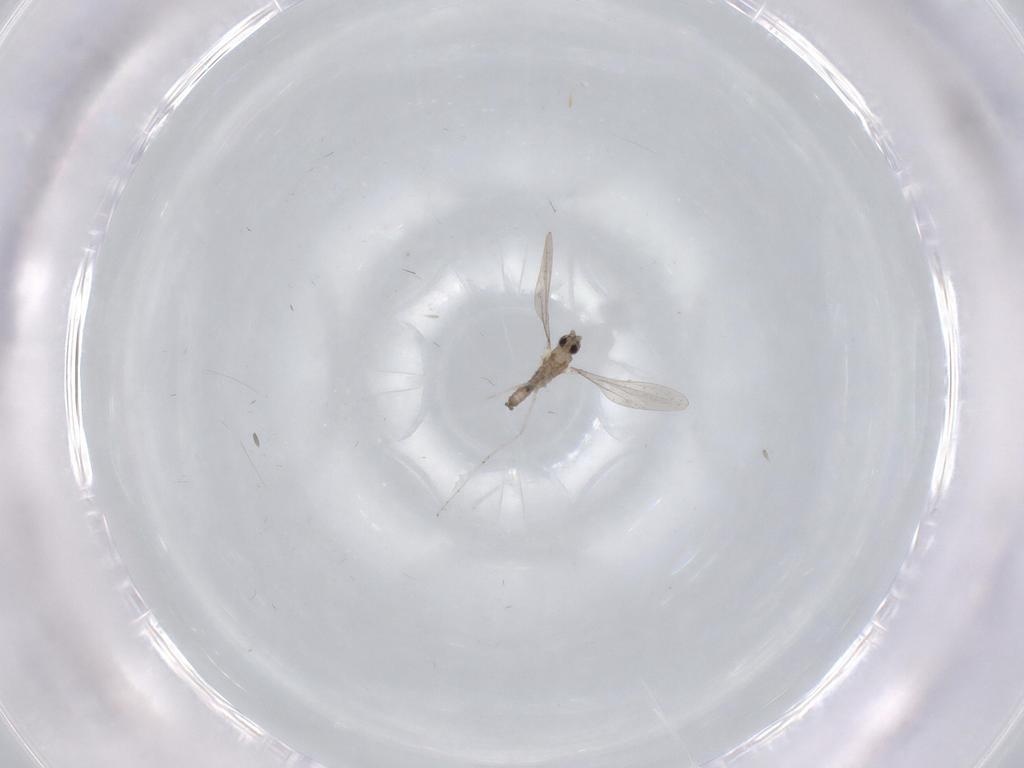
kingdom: Animalia
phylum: Arthropoda
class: Insecta
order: Diptera
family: Cecidomyiidae
